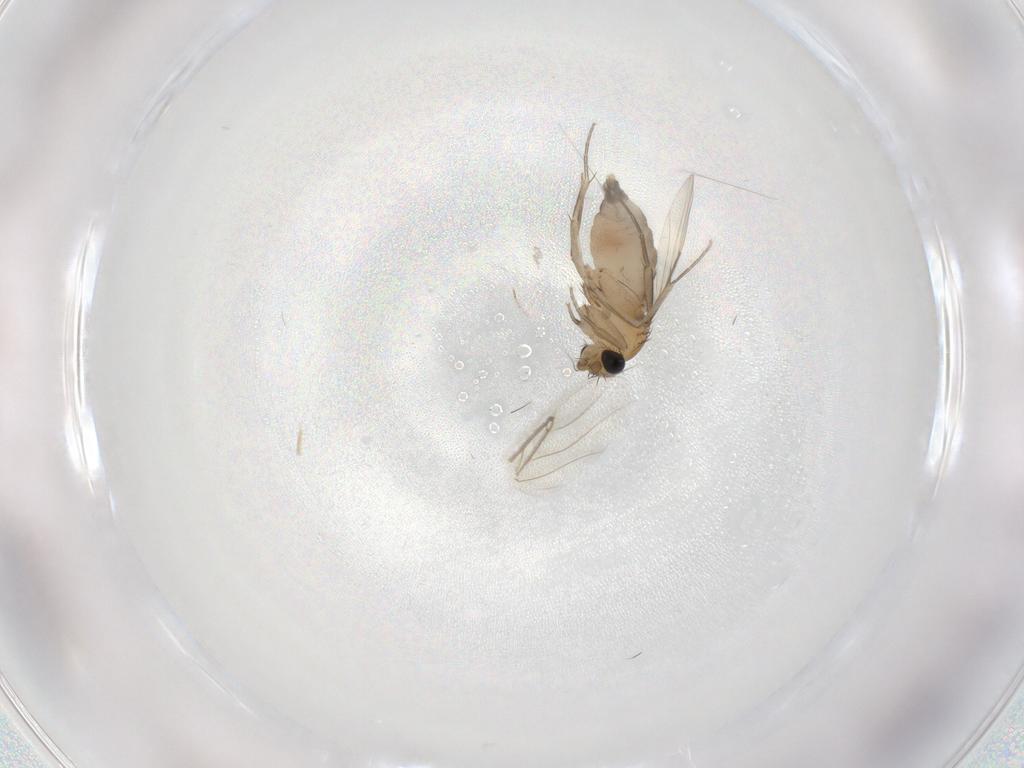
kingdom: Animalia
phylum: Arthropoda
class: Insecta
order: Diptera
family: Phoridae
